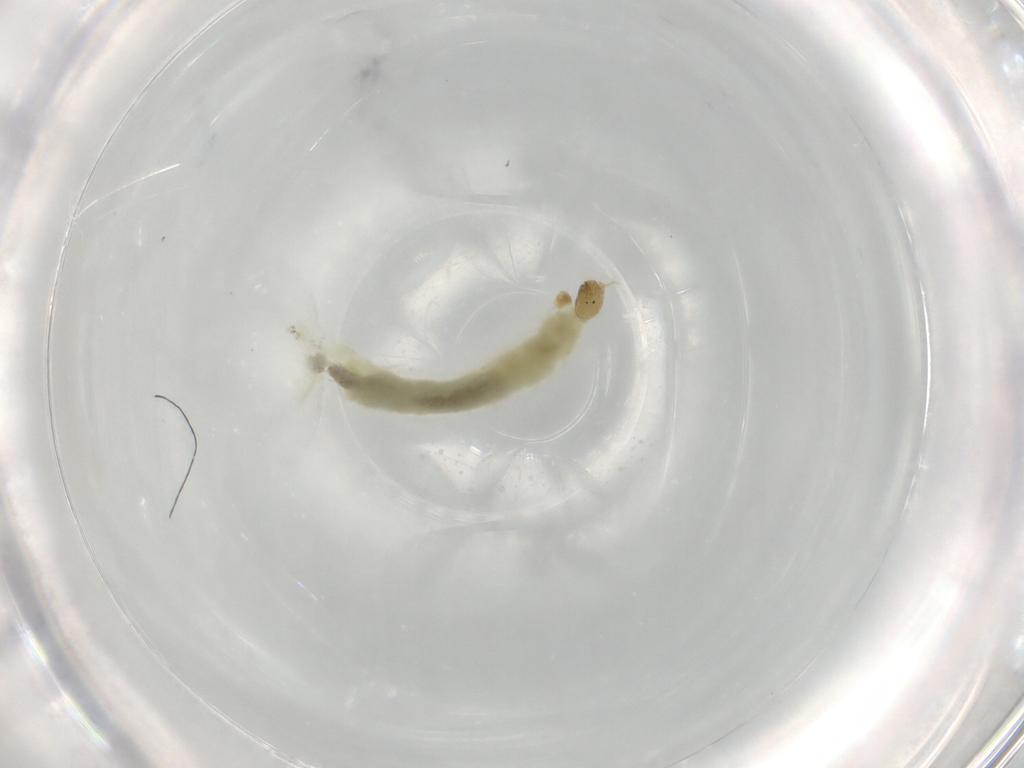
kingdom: Animalia
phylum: Arthropoda
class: Insecta
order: Diptera
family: Chironomidae
